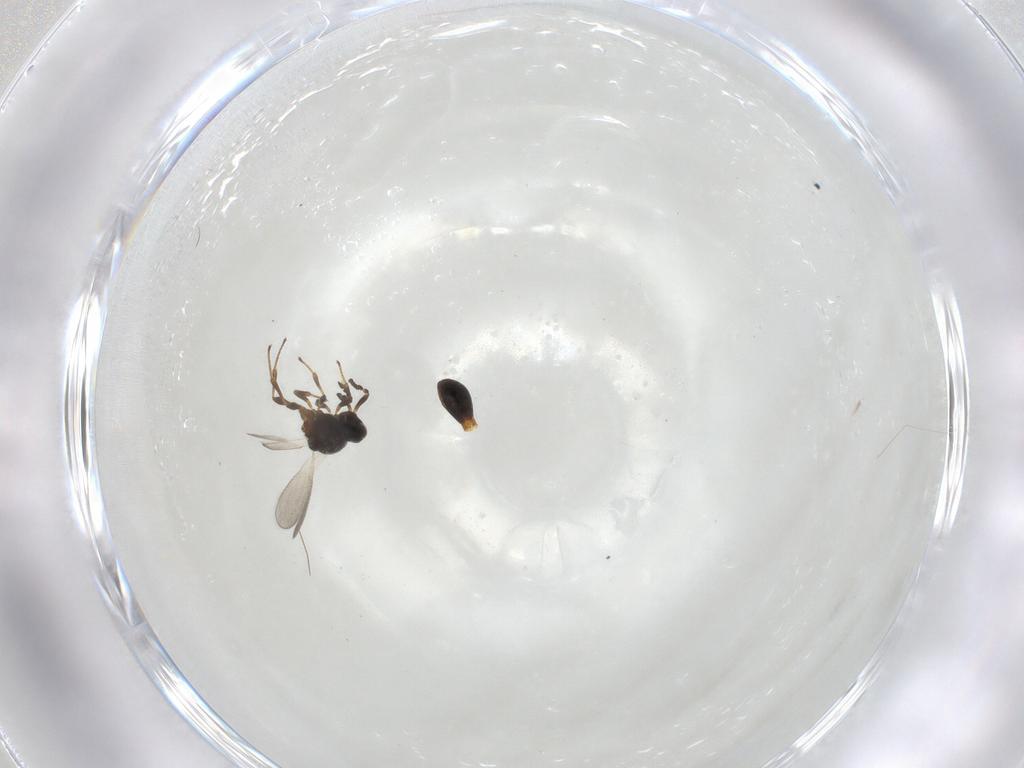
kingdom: Animalia
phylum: Arthropoda
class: Insecta
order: Hymenoptera
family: Platygastridae
